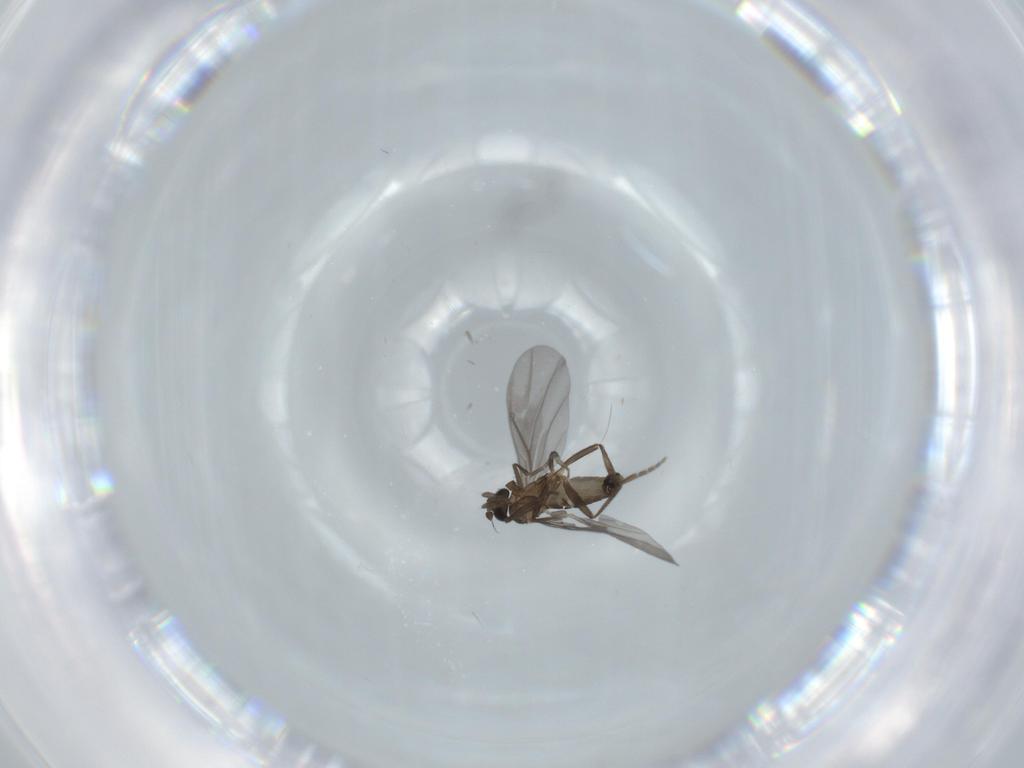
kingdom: Animalia
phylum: Arthropoda
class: Insecta
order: Diptera
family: Phoridae
